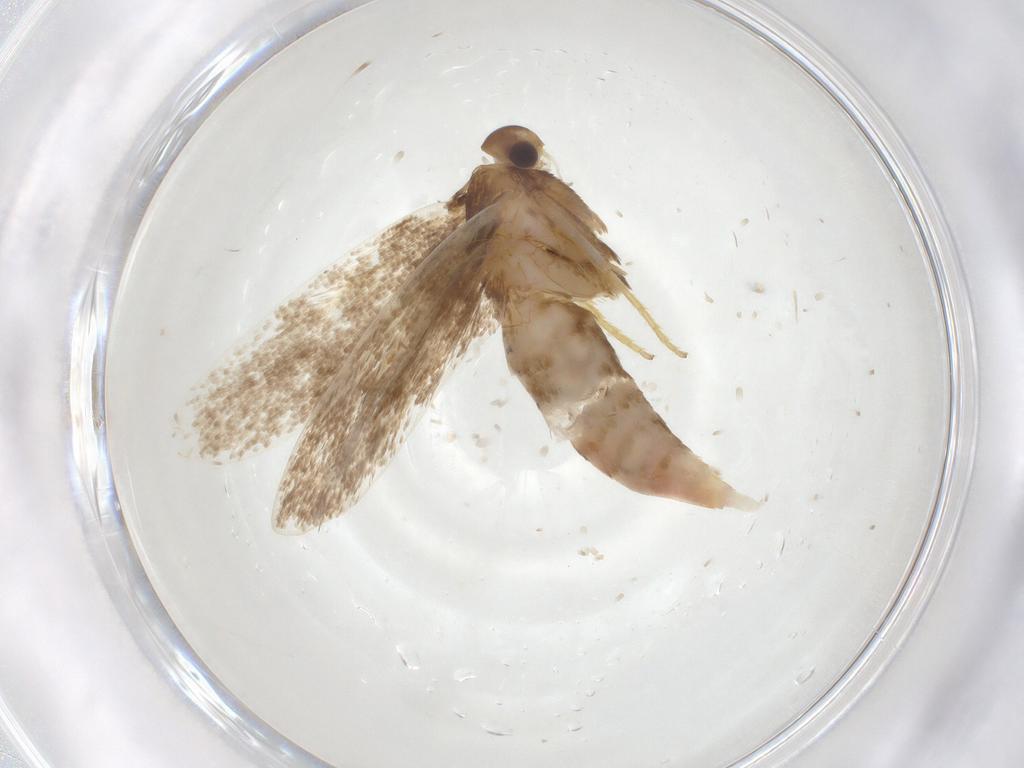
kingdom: Animalia
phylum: Arthropoda
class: Insecta
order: Lepidoptera
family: Lecithoceridae
